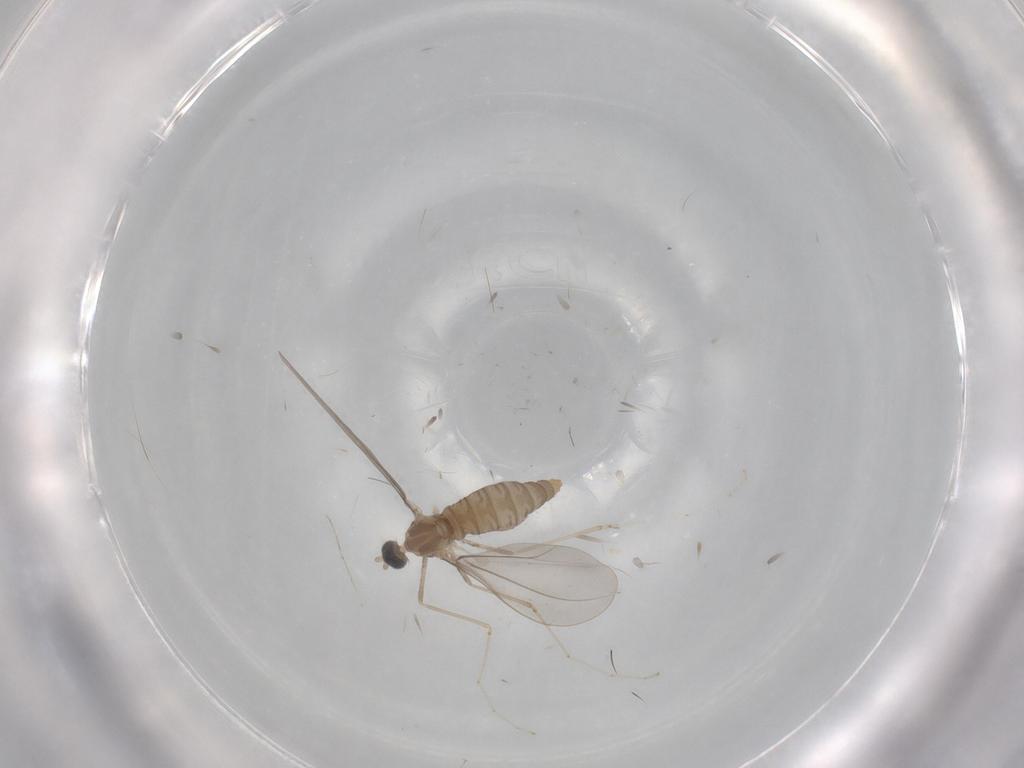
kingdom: Animalia
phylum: Arthropoda
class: Insecta
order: Diptera
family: Cecidomyiidae
